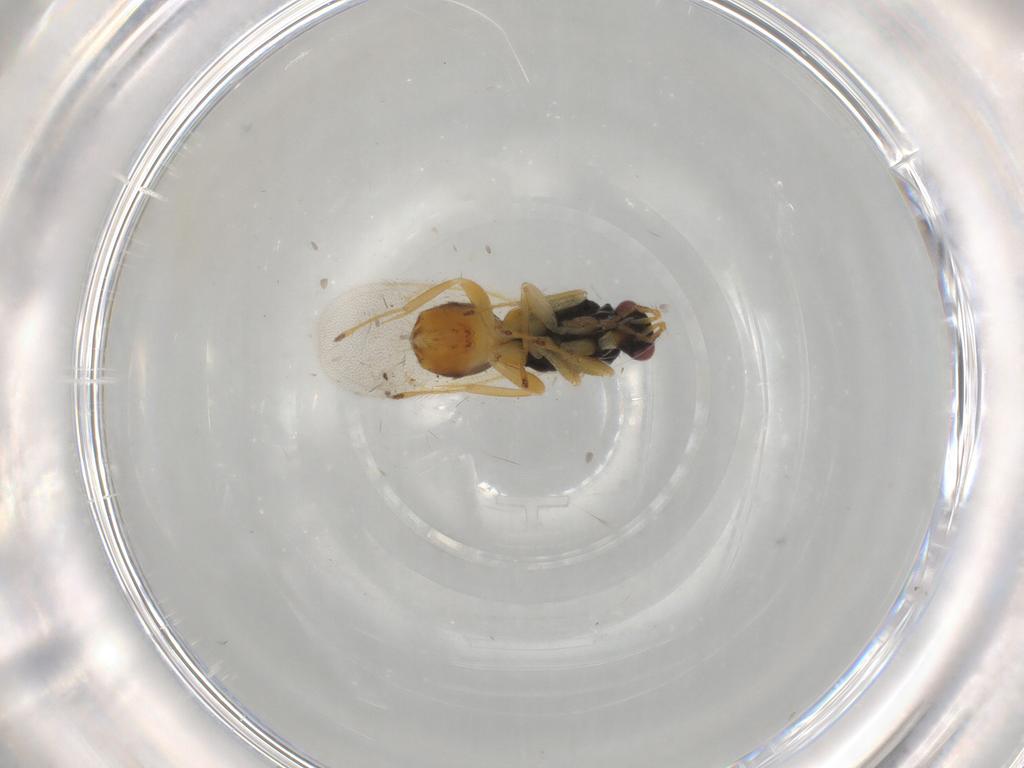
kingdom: Animalia
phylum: Arthropoda
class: Insecta
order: Hymenoptera
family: Eulophidae
